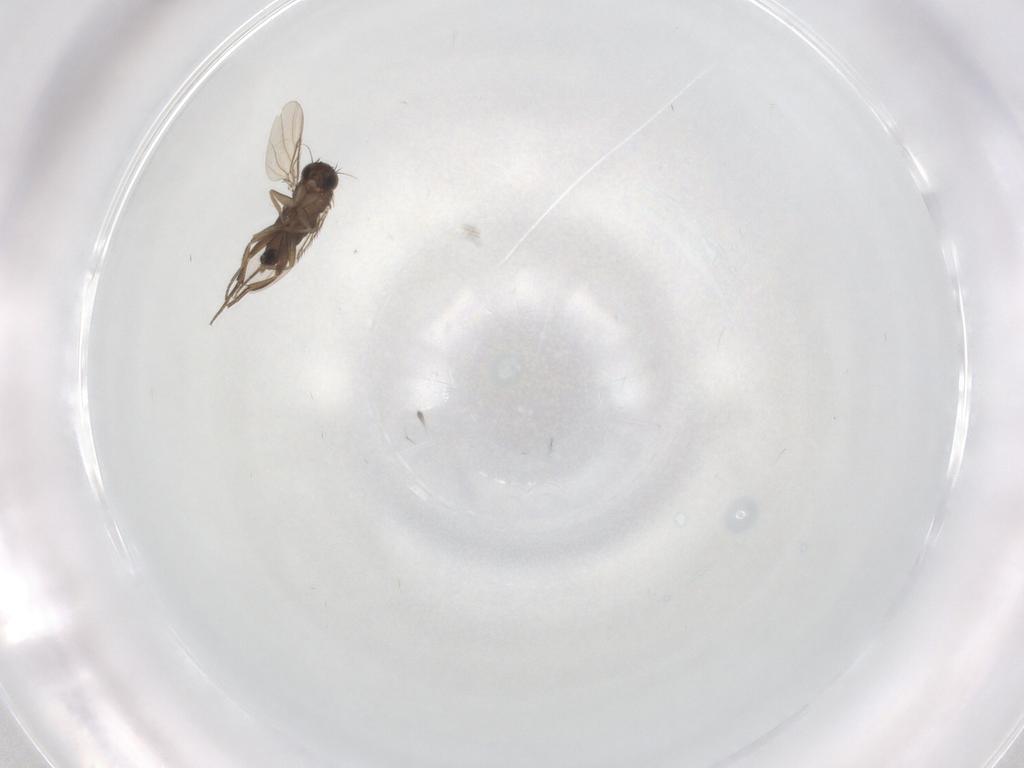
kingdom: Animalia
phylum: Arthropoda
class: Insecta
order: Diptera
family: Phoridae
